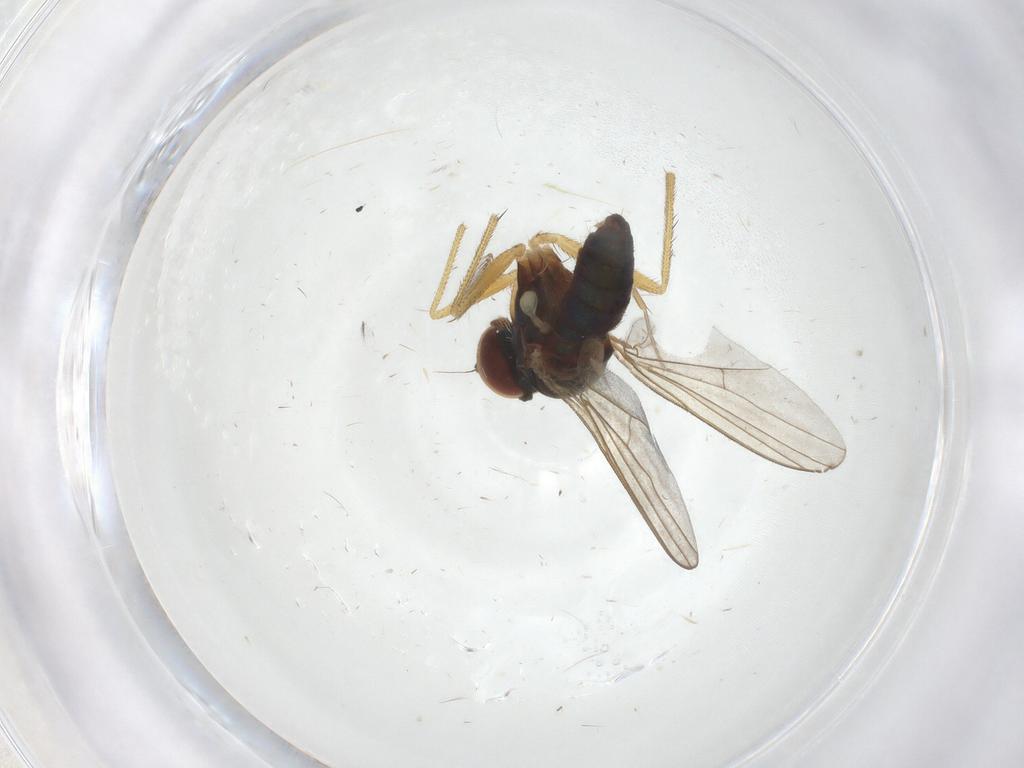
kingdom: Animalia
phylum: Arthropoda
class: Insecta
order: Diptera
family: Dolichopodidae
